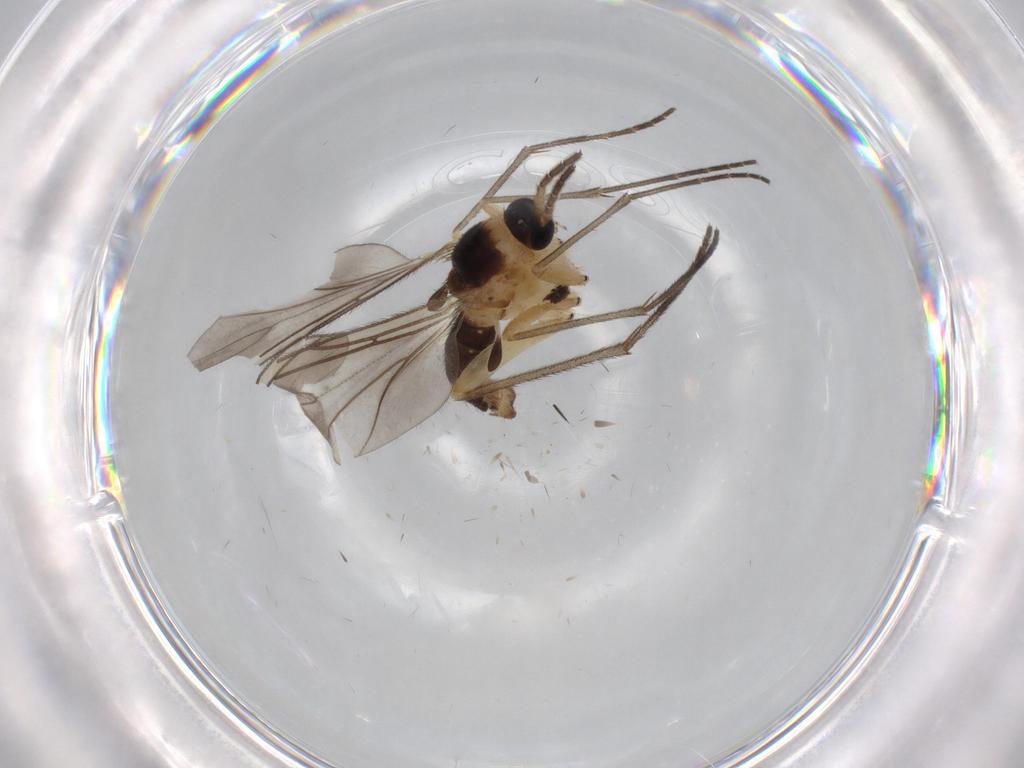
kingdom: Animalia
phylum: Arthropoda
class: Insecta
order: Diptera
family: Sciaridae
